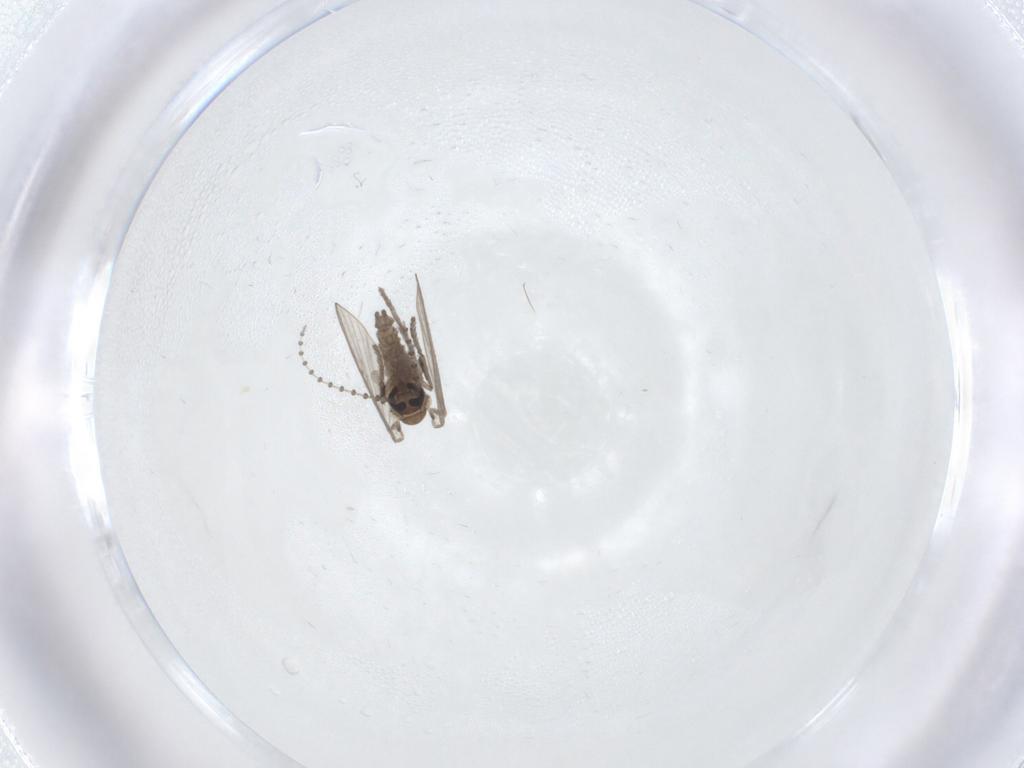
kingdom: Animalia
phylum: Arthropoda
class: Insecta
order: Diptera
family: Psychodidae
